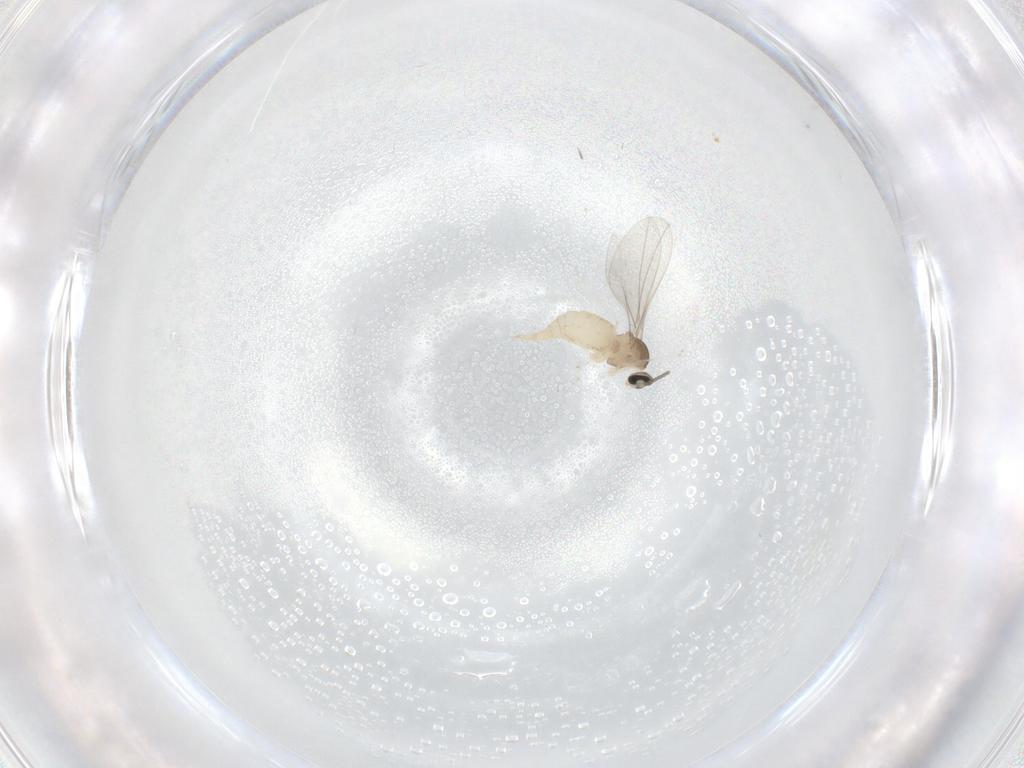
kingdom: Animalia
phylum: Arthropoda
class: Insecta
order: Diptera
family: Cecidomyiidae
